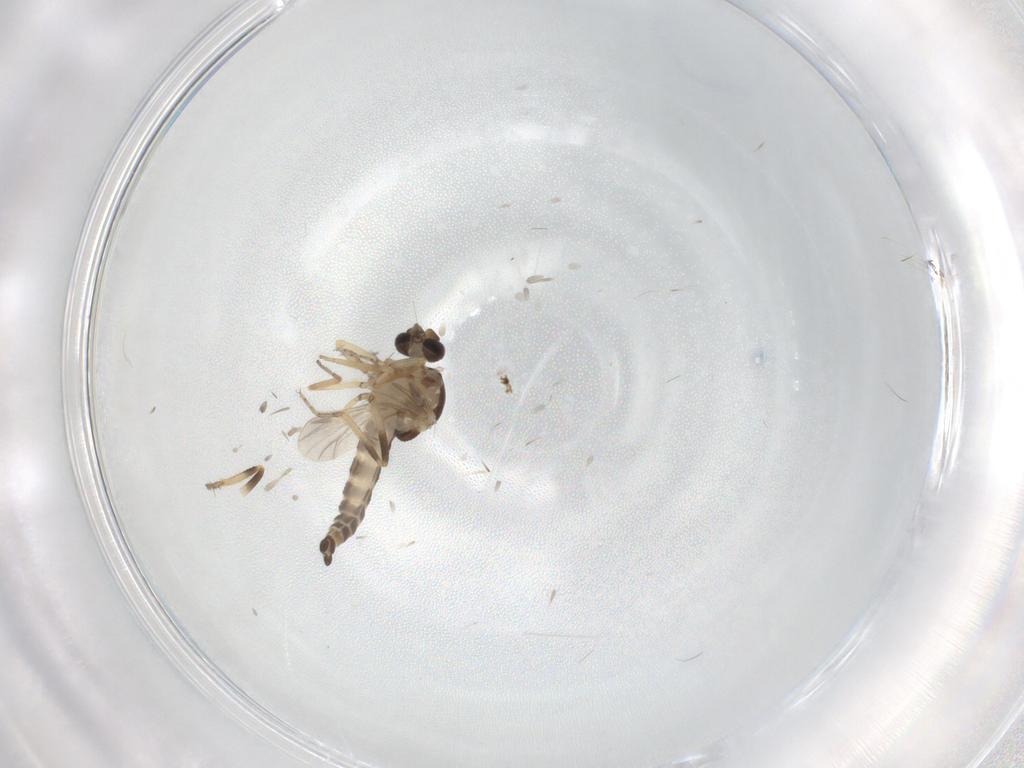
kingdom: Animalia
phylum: Arthropoda
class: Insecta
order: Diptera
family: Ceratopogonidae
